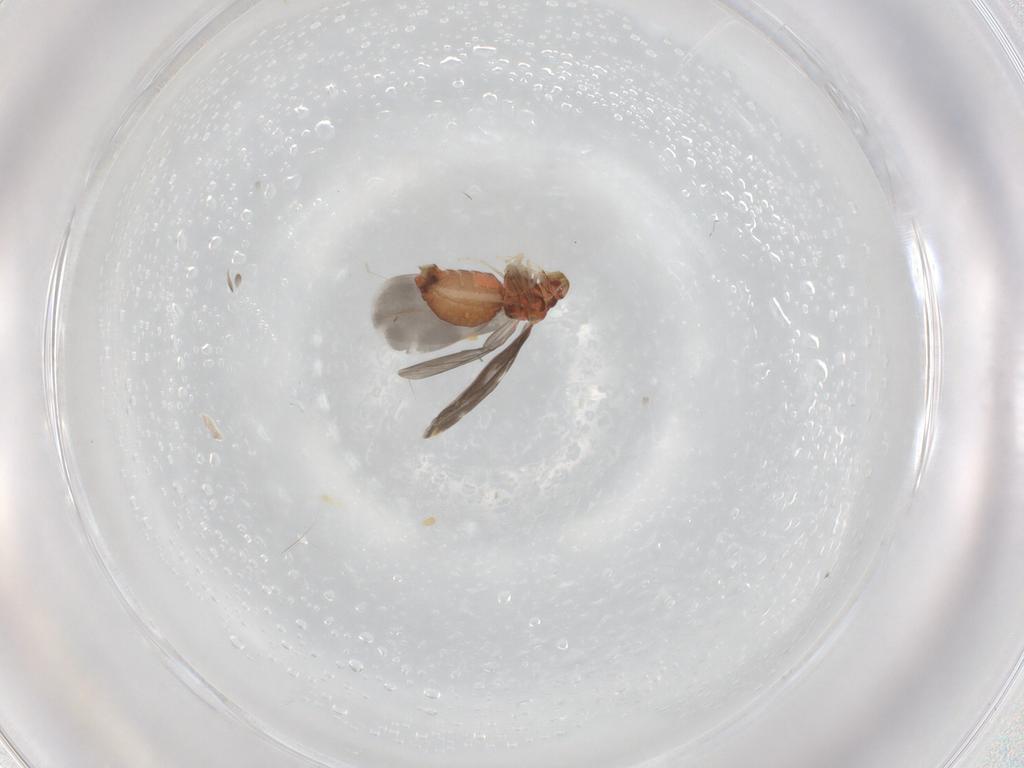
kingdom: Animalia
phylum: Arthropoda
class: Insecta
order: Hemiptera
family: Aleyrodidae
